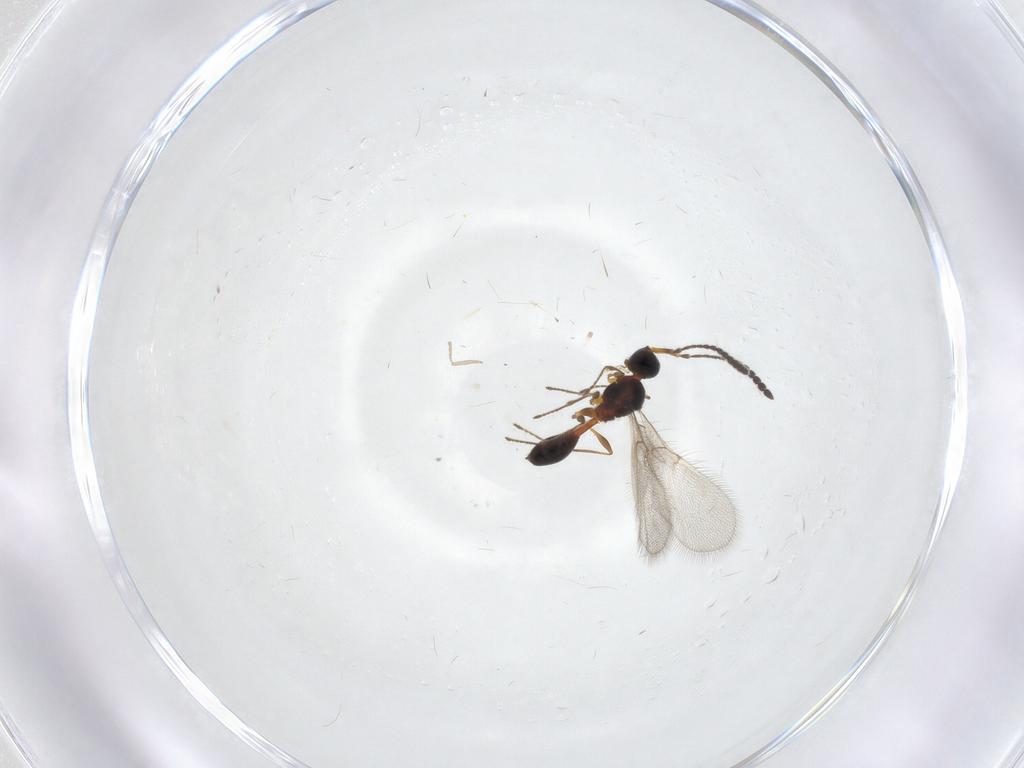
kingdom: Animalia
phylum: Arthropoda
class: Insecta
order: Hymenoptera
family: Diapriidae
